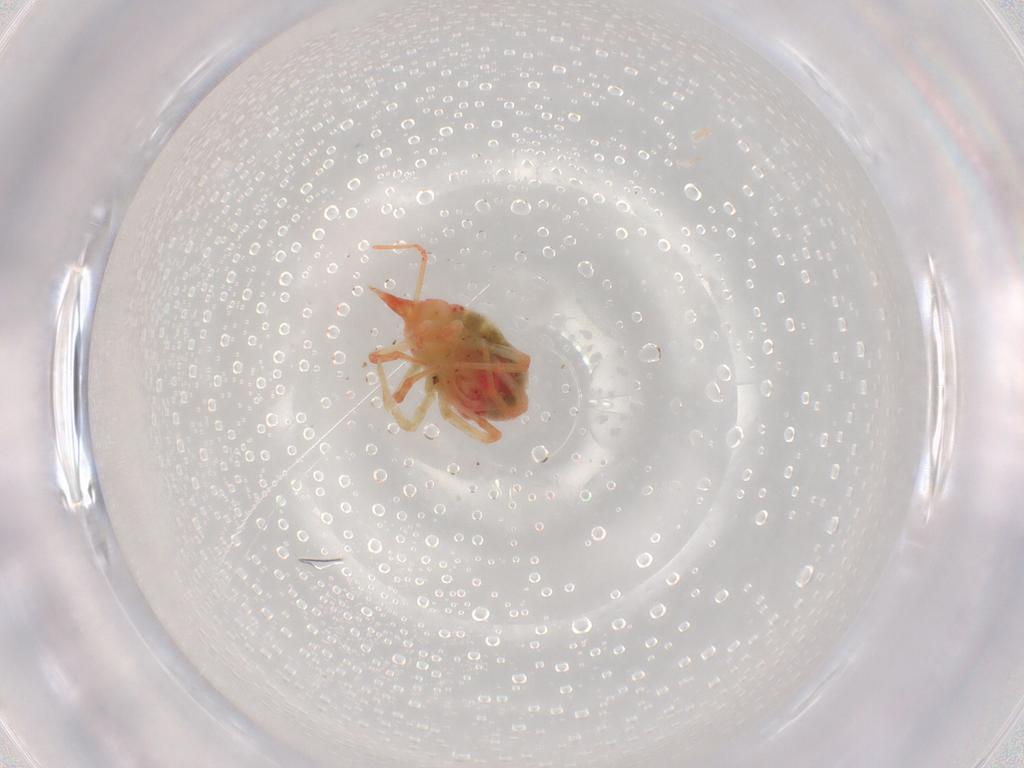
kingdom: Animalia
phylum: Arthropoda
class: Arachnida
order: Trombidiformes
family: Bdellidae
